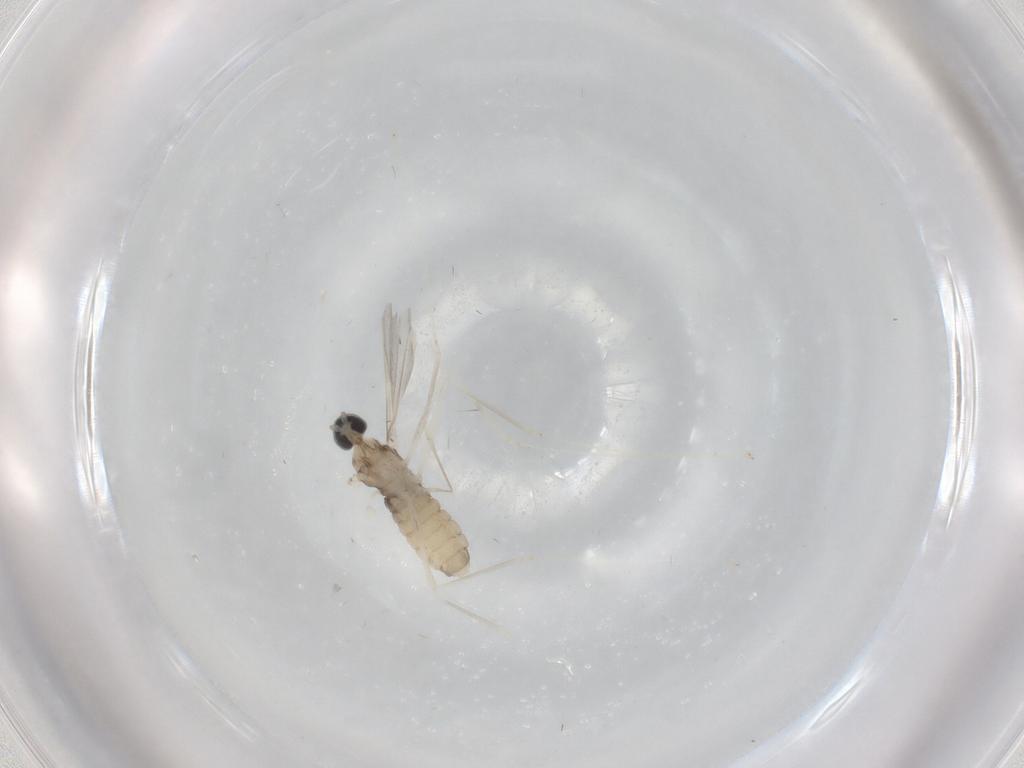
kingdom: Animalia
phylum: Arthropoda
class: Insecta
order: Diptera
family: Cecidomyiidae
